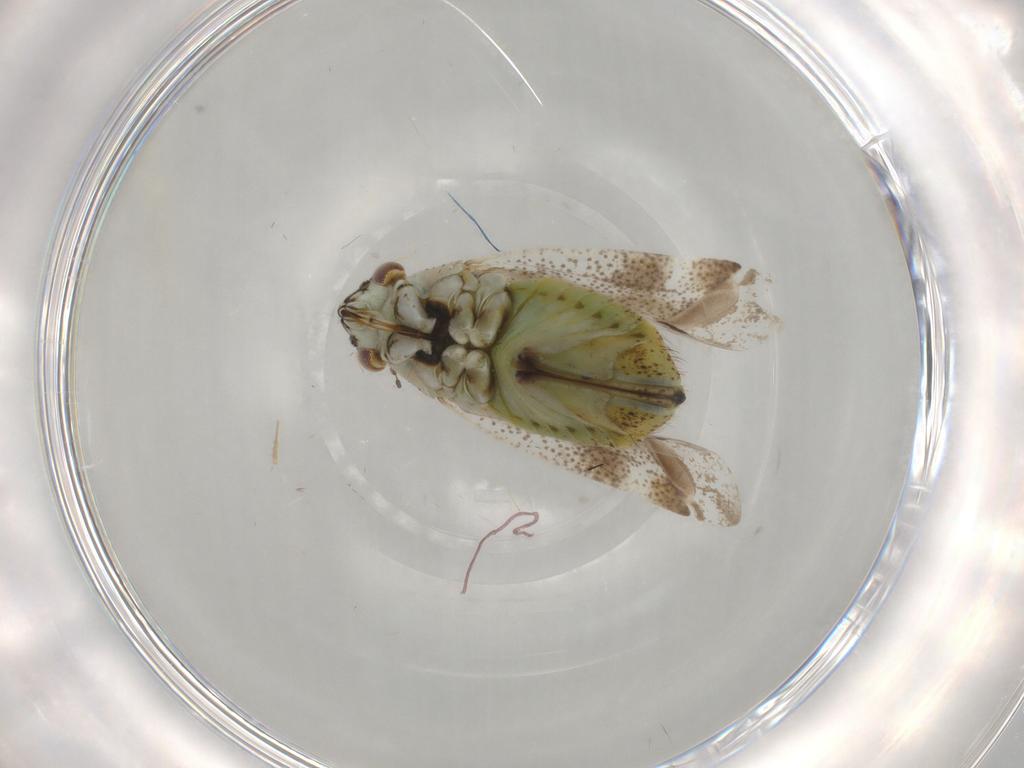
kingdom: Animalia
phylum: Arthropoda
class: Insecta
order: Hemiptera
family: Miridae
